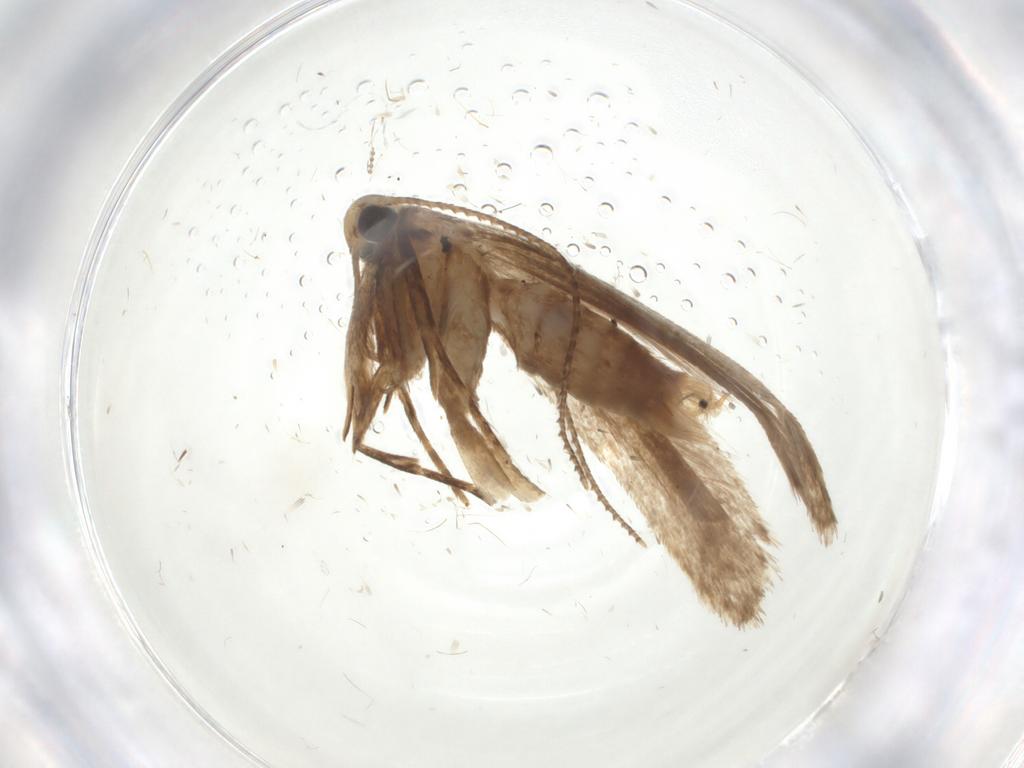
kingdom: Animalia
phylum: Arthropoda
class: Insecta
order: Lepidoptera
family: Gelechiidae
